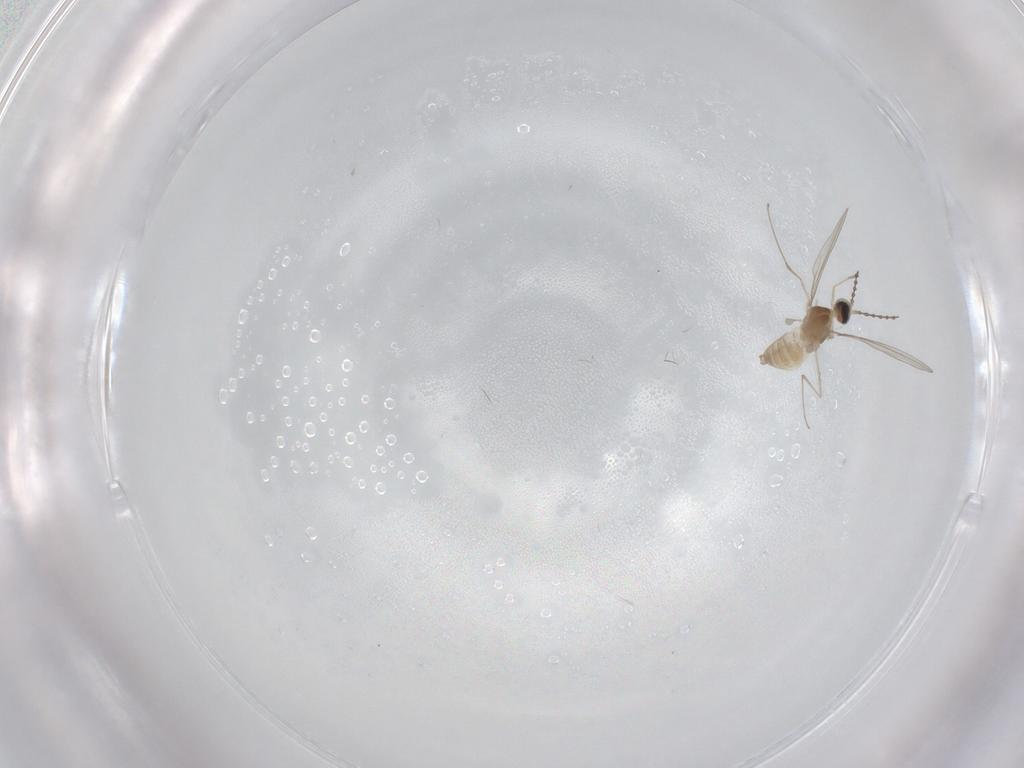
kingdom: Animalia
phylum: Arthropoda
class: Insecta
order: Diptera
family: Cecidomyiidae
